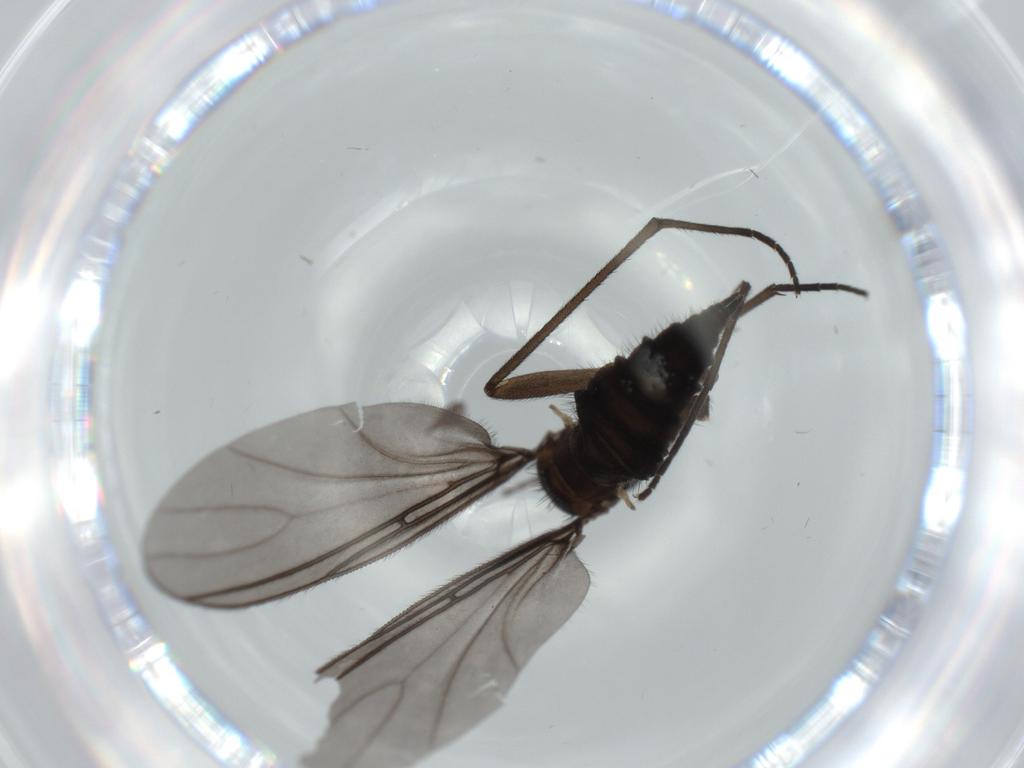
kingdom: Animalia
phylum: Arthropoda
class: Insecta
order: Diptera
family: Sciaridae
